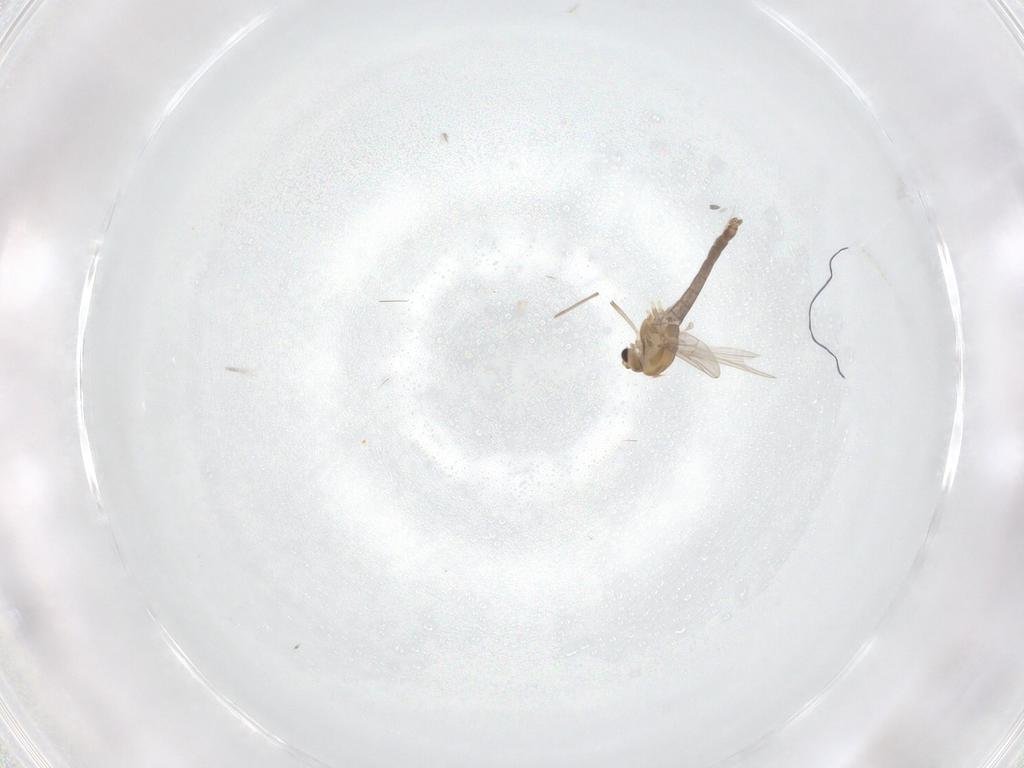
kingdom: Animalia
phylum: Arthropoda
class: Insecta
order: Diptera
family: Chironomidae
